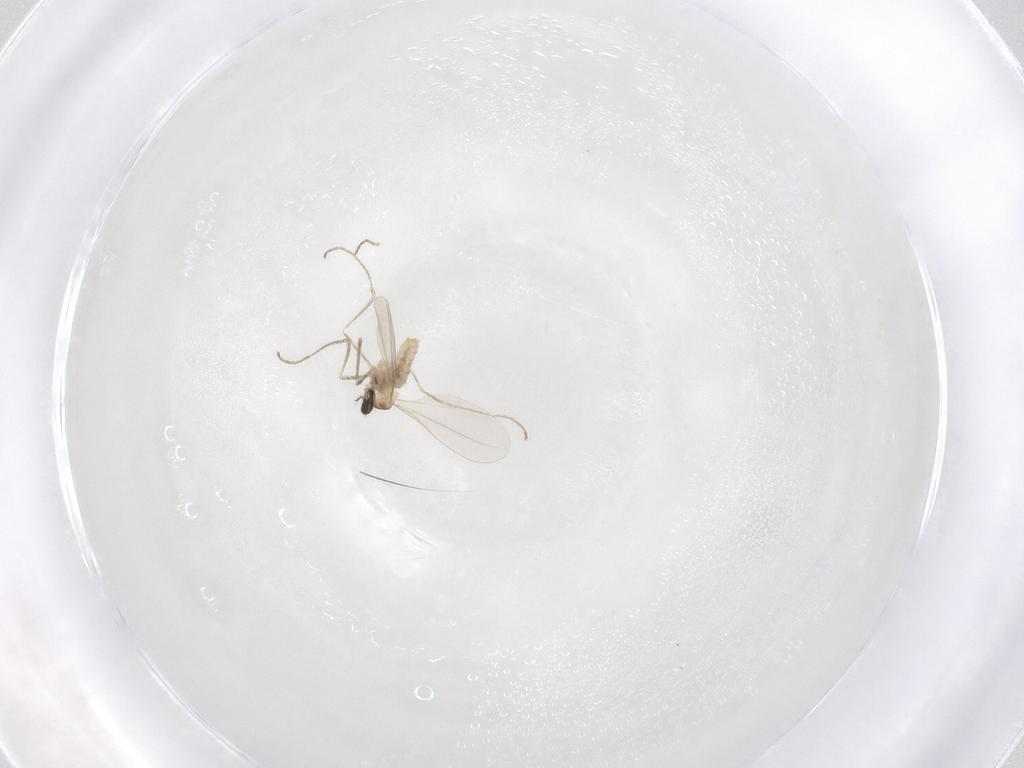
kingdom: Animalia
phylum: Arthropoda
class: Insecta
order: Diptera
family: Cecidomyiidae
